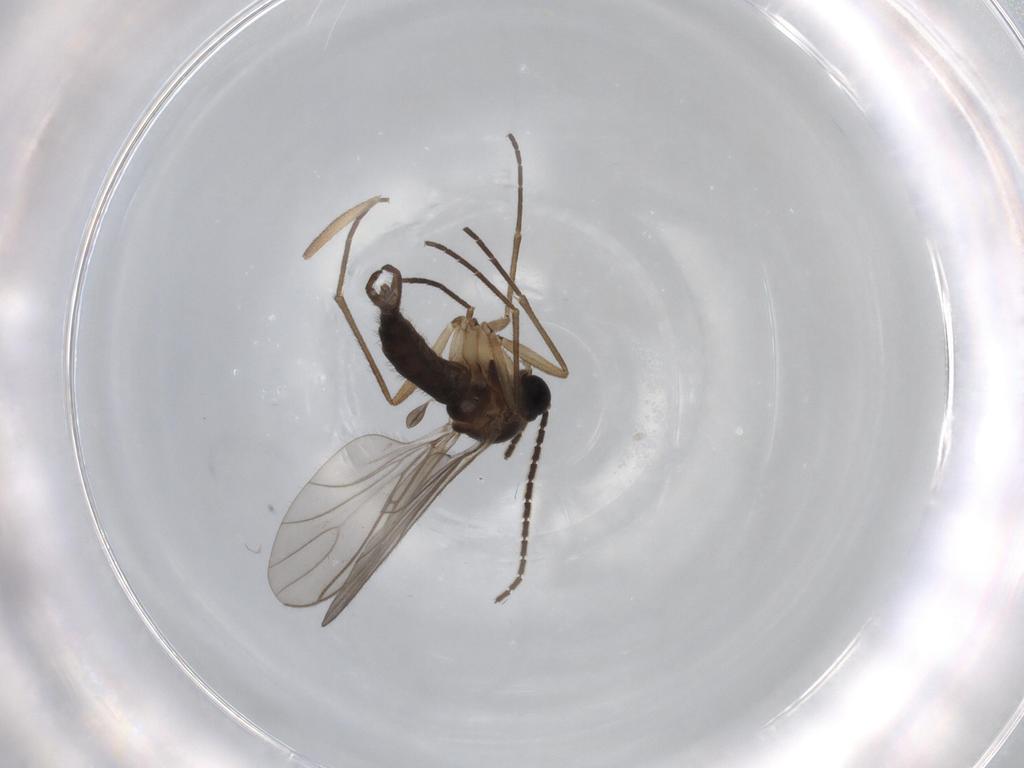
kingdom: Animalia
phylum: Arthropoda
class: Insecta
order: Diptera
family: Sciaridae
